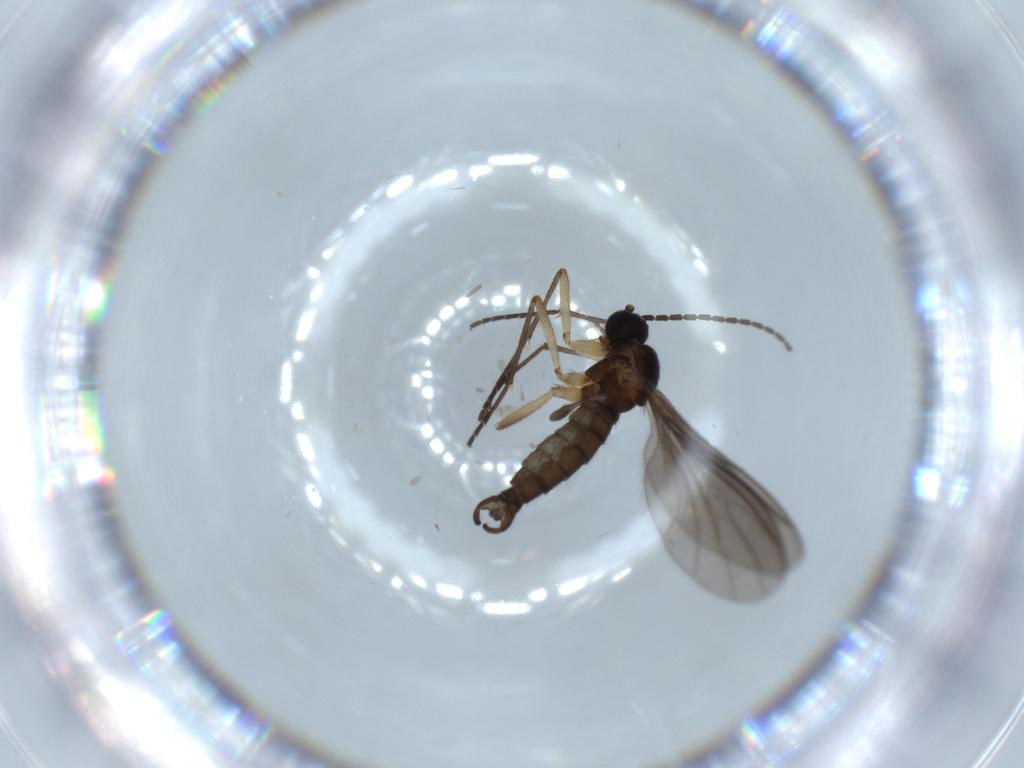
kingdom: Animalia
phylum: Arthropoda
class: Insecta
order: Diptera
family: Sciaridae
